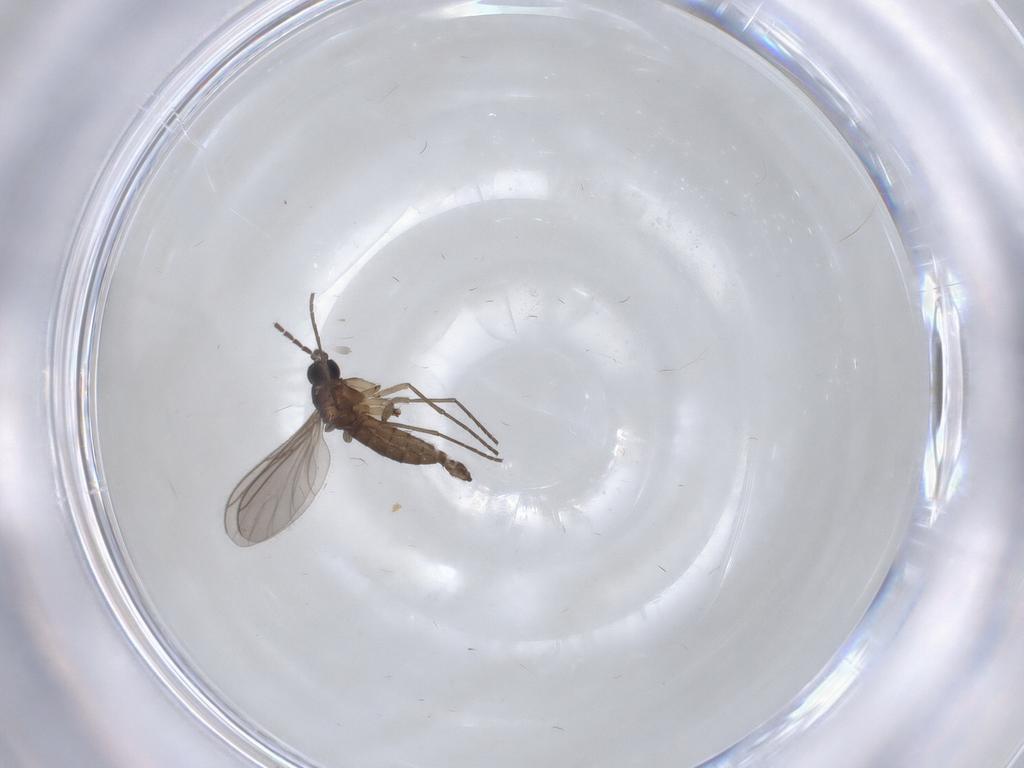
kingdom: Animalia
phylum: Arthropoda
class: Insecta
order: Diptera
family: Sciaridae
